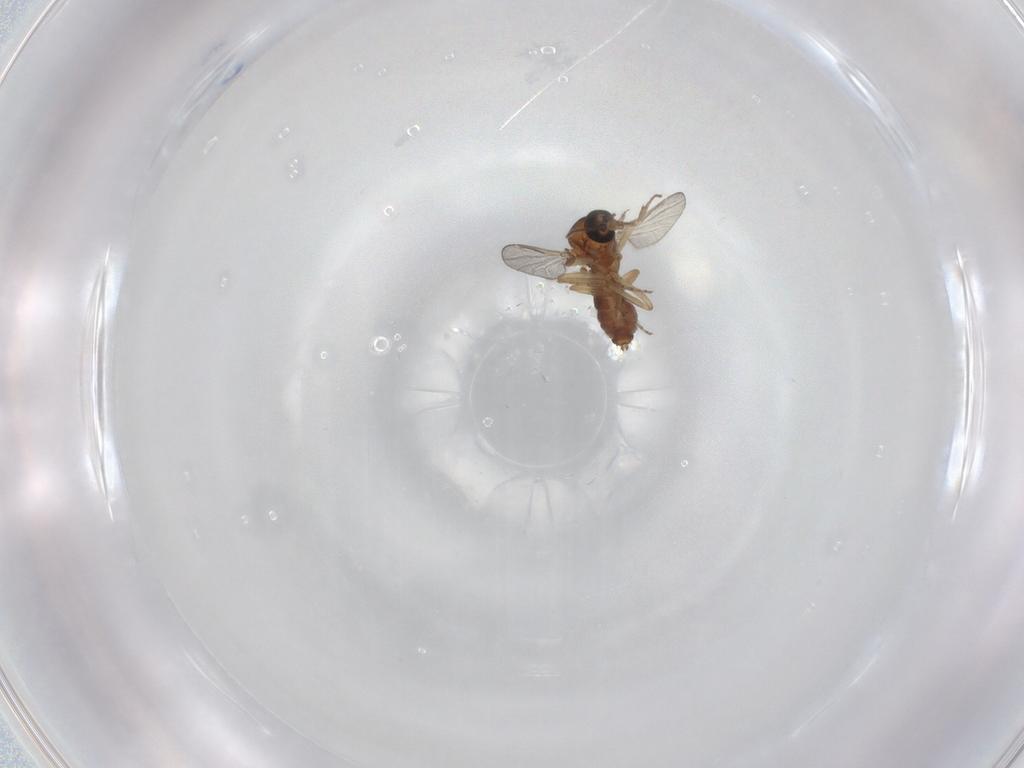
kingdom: Animalia
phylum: Arthropoda
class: Insecta
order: Diptera
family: Ceratopogonidae
